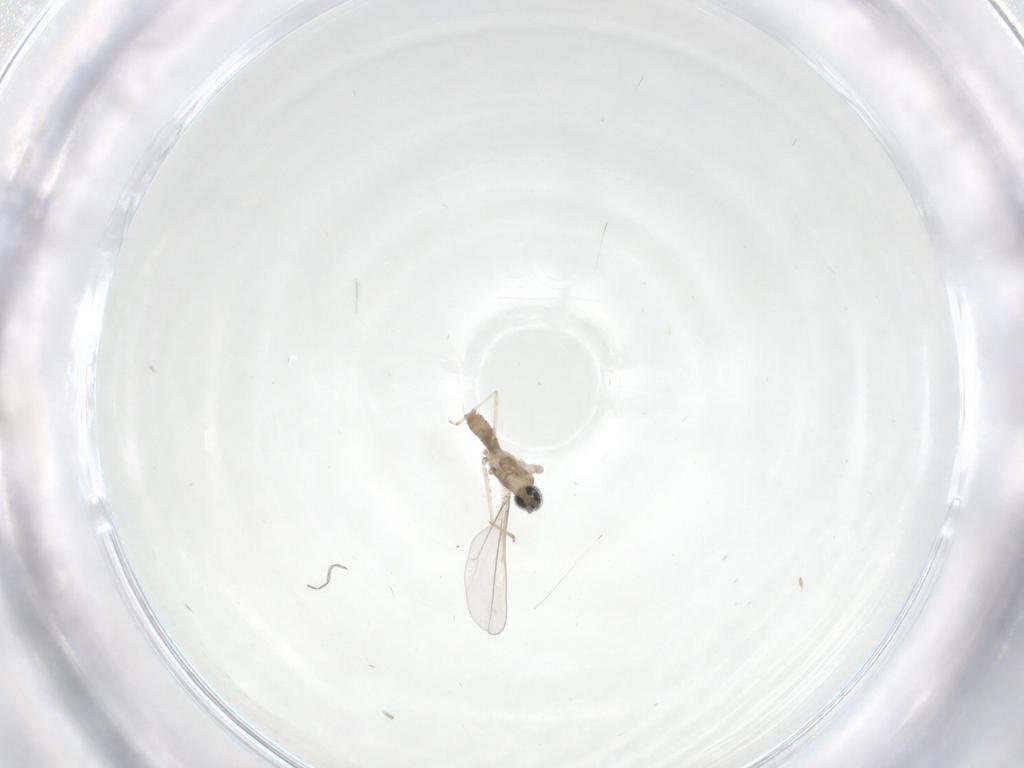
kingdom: Animalia
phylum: Arthropoda
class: Insecta
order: Diptera
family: Cecidomyiidae
